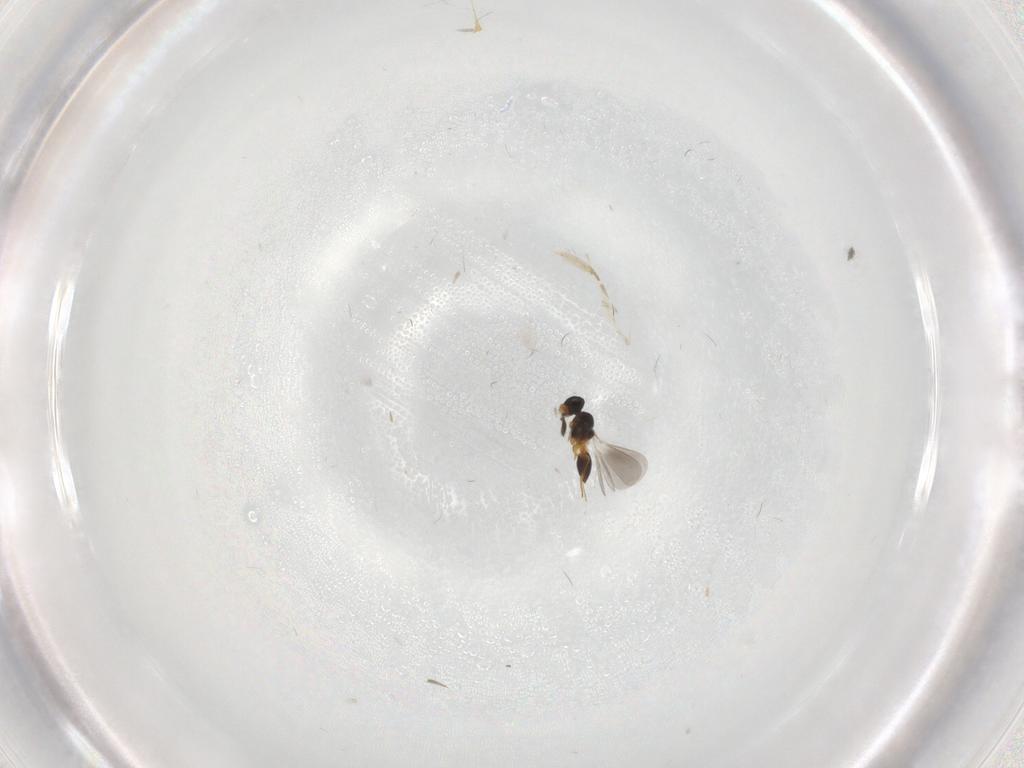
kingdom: Animalia
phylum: Arthropoda
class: Insecta
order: Hymenoptera
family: Platygastridae
